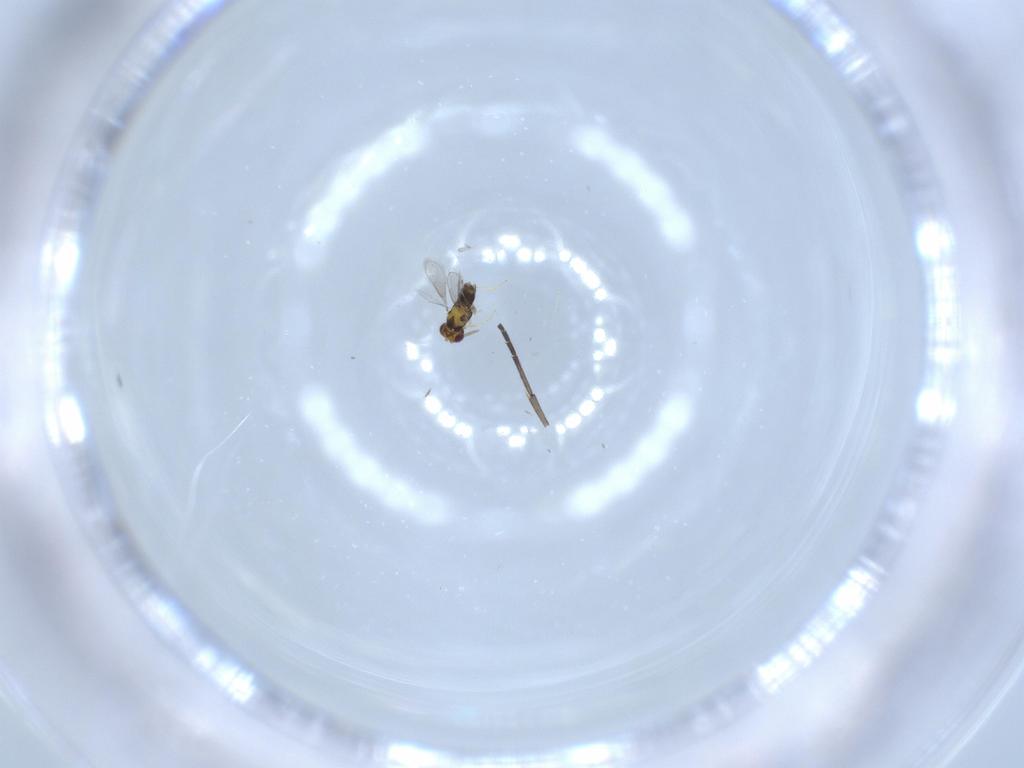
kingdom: Animalia
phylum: Arthropoda
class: Insecta
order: Hymenoptera
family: Aphelinidae
